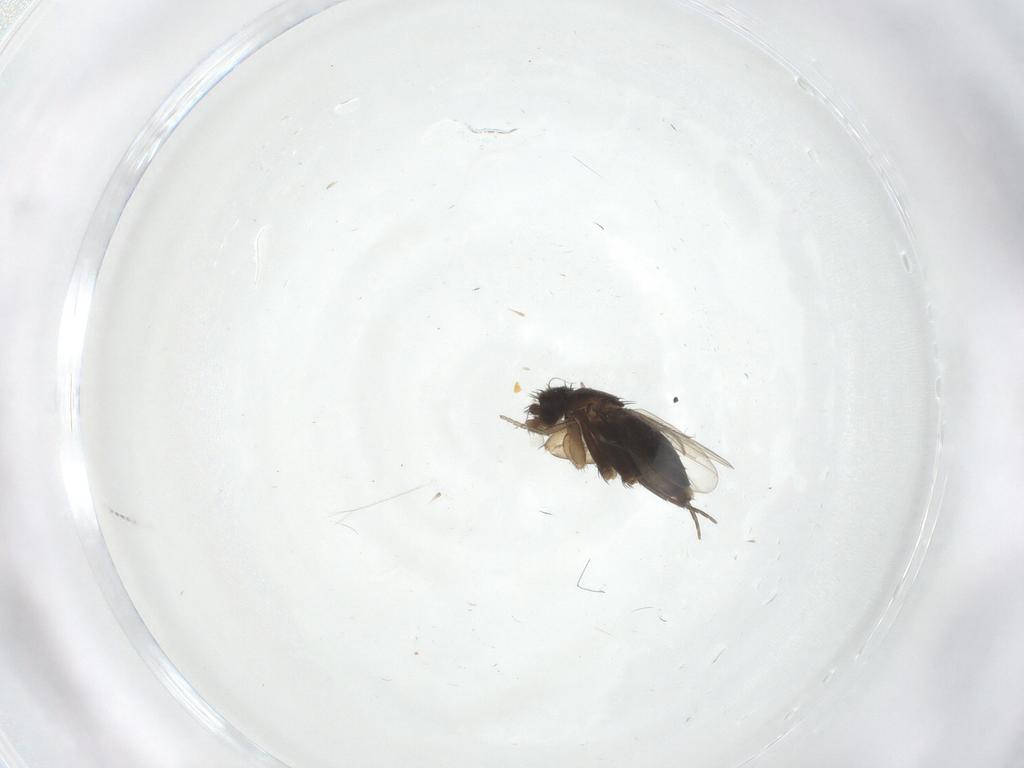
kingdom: Animalia
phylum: Arthropoda
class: Insecta
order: Diptera
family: Phoridae
